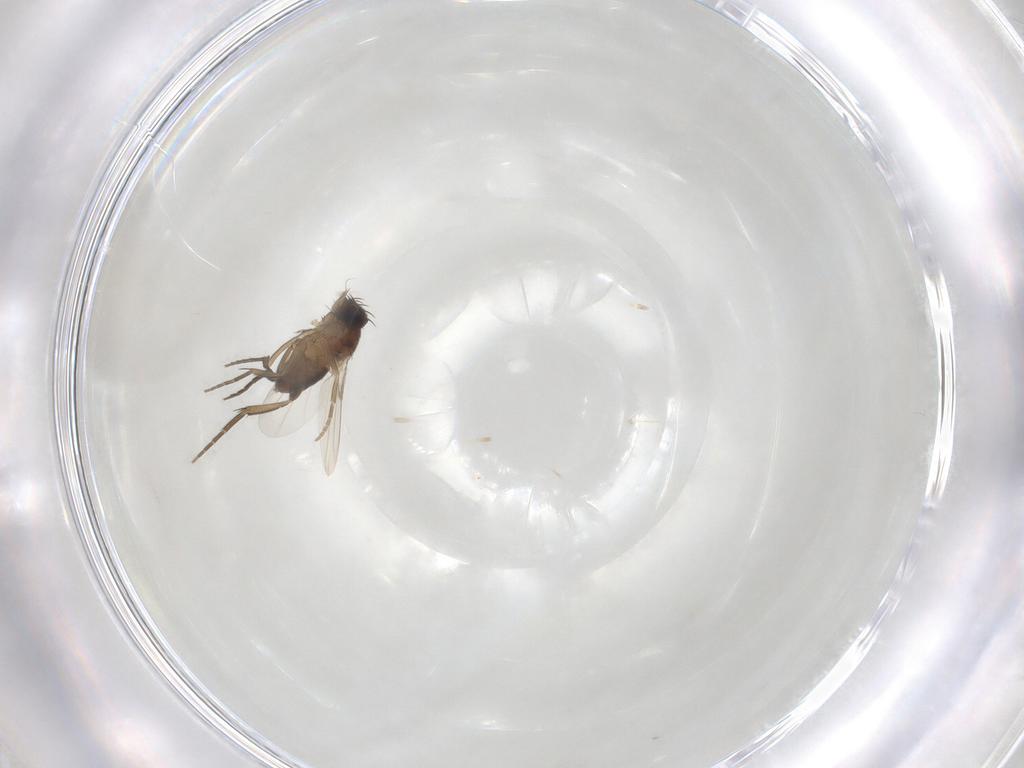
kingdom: Animalia
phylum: Arthropoda
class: Insecta
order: Diptera
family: Phoridae
